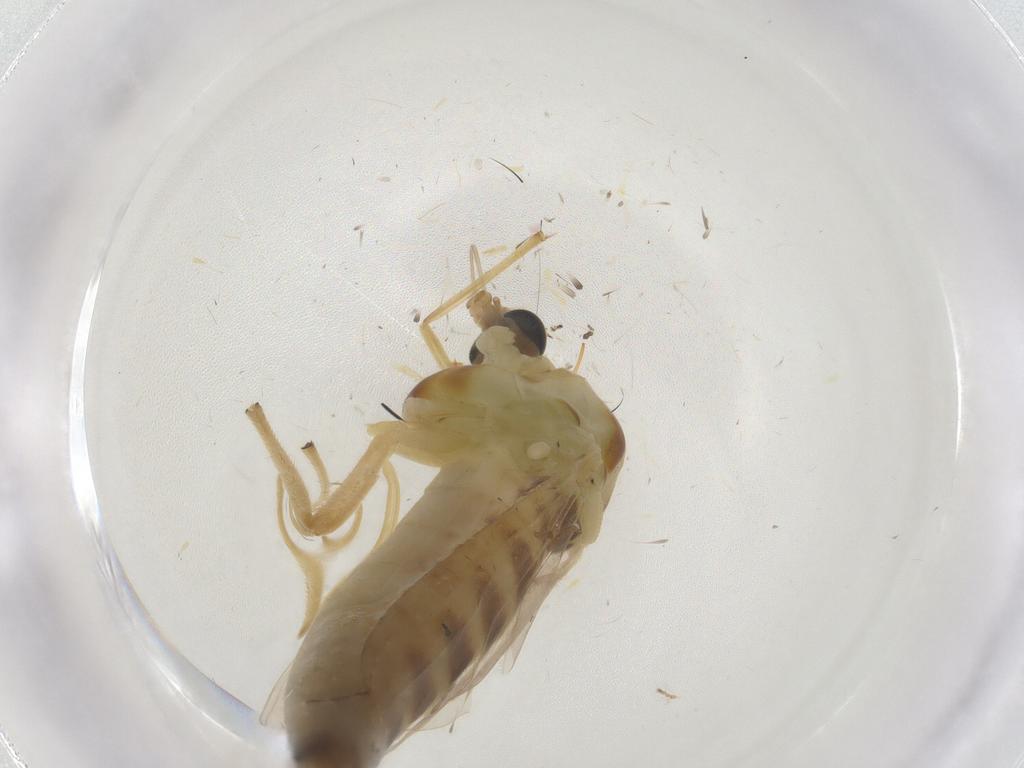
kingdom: Animalia
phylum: Arthropoda
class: Insecta
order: Diptera
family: Chironomidae
